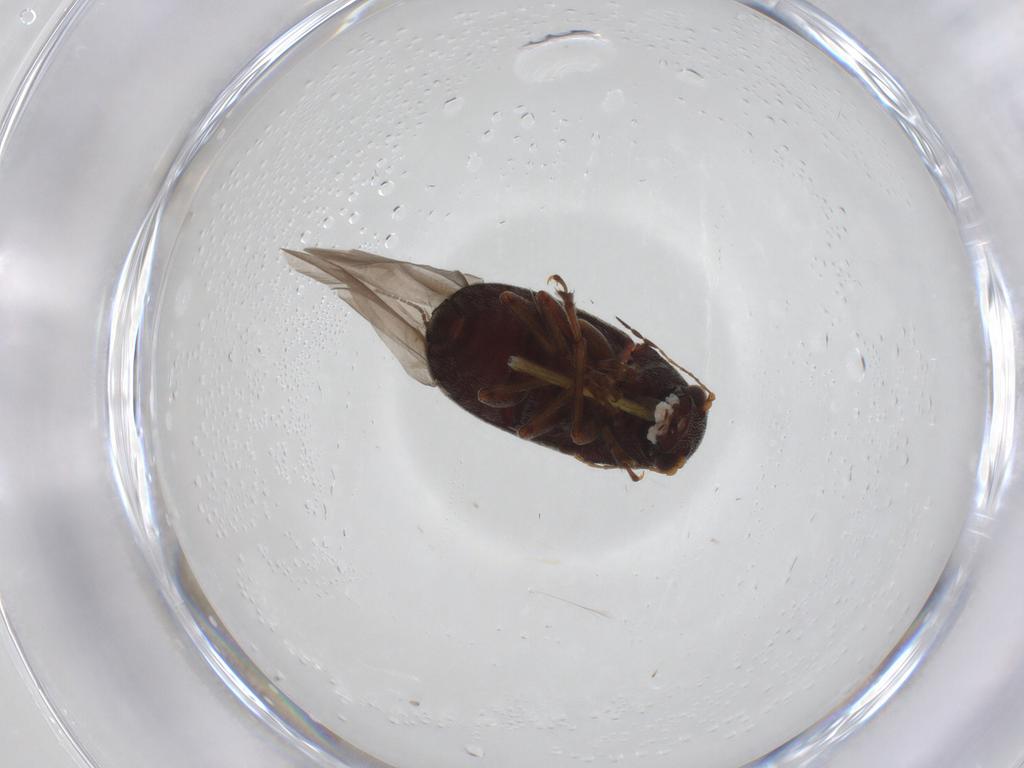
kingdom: Animalia
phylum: Arthropoda
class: Insecta
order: Coleoptera
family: Anthribidae
